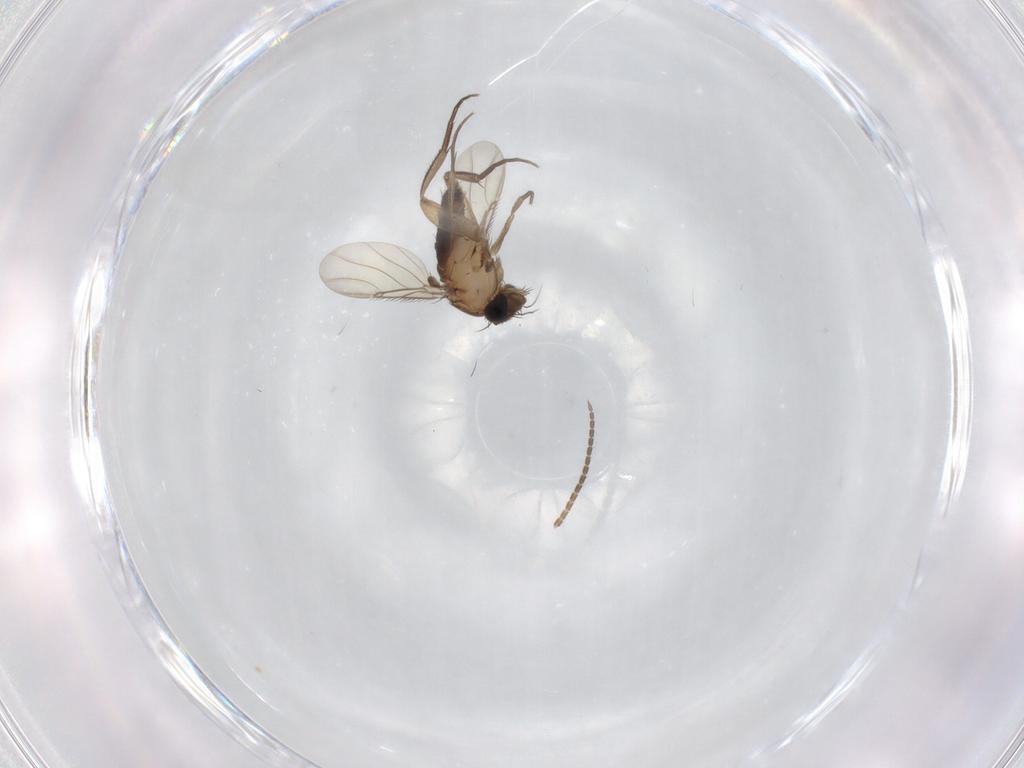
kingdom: Animalia
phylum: Arthropoda
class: Insecta
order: Diptera
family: Phoridae
